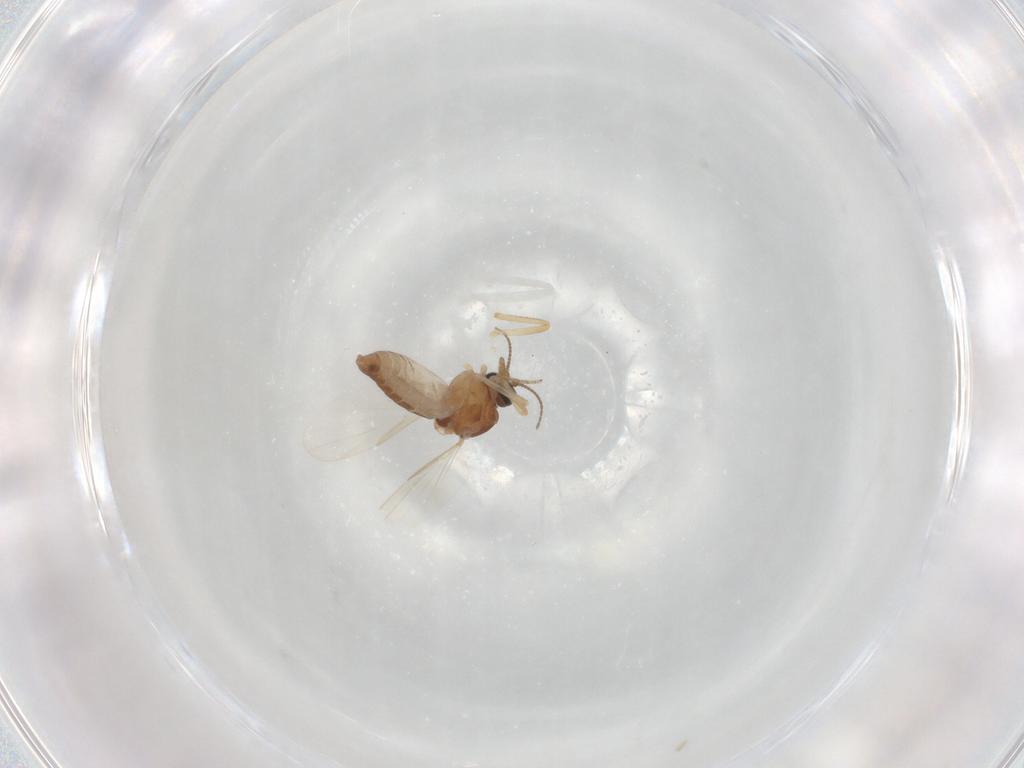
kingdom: Animalia
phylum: Arthropoda
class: Insecta
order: Diptera
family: Ceratopogonidae
